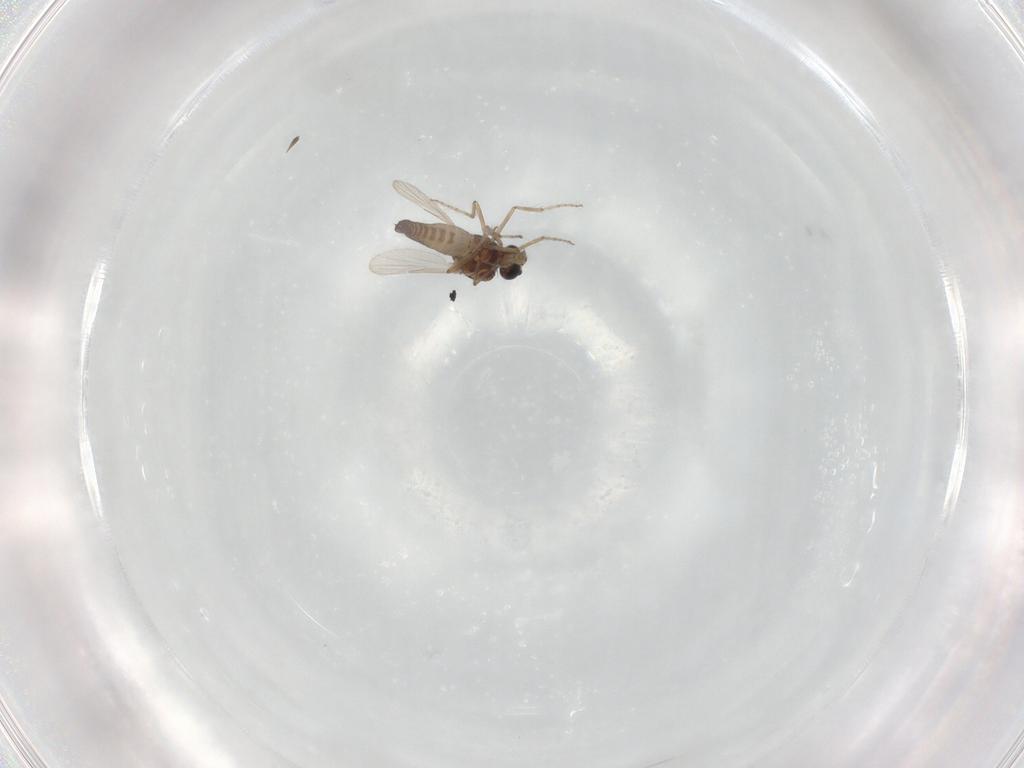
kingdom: Animalia
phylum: Arthropoda
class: Insecta
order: Diptera
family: Ceratopogonidae
